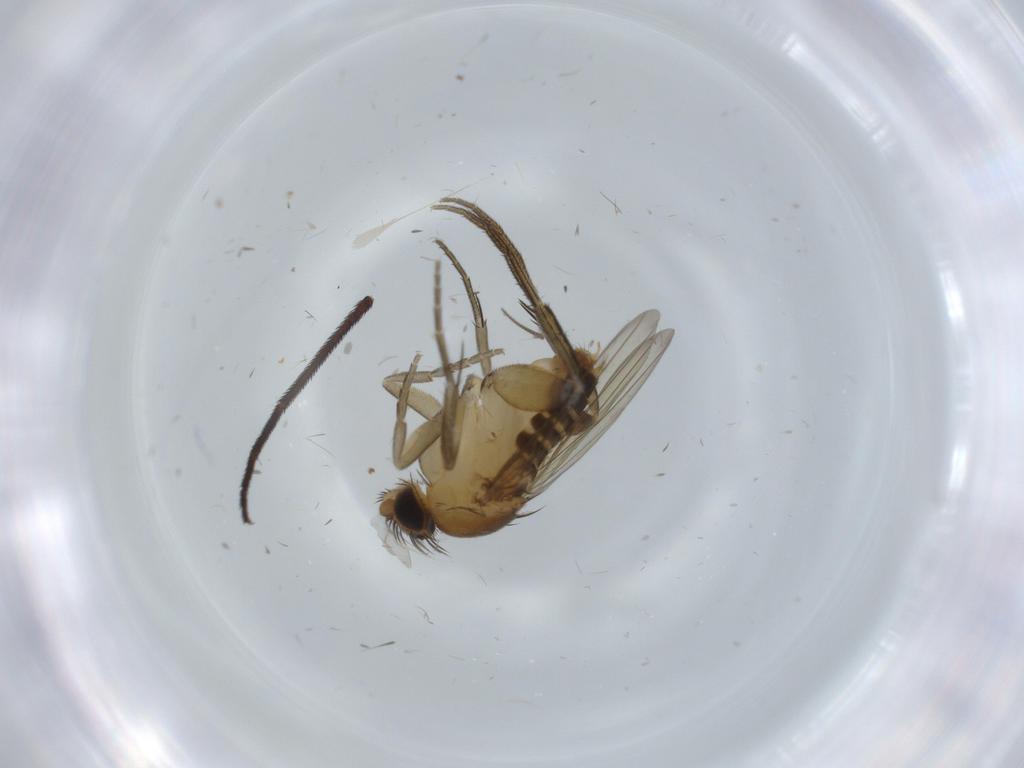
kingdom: Animalia
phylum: Arthropoda
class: Insecta
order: Diptera
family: Phoridae
